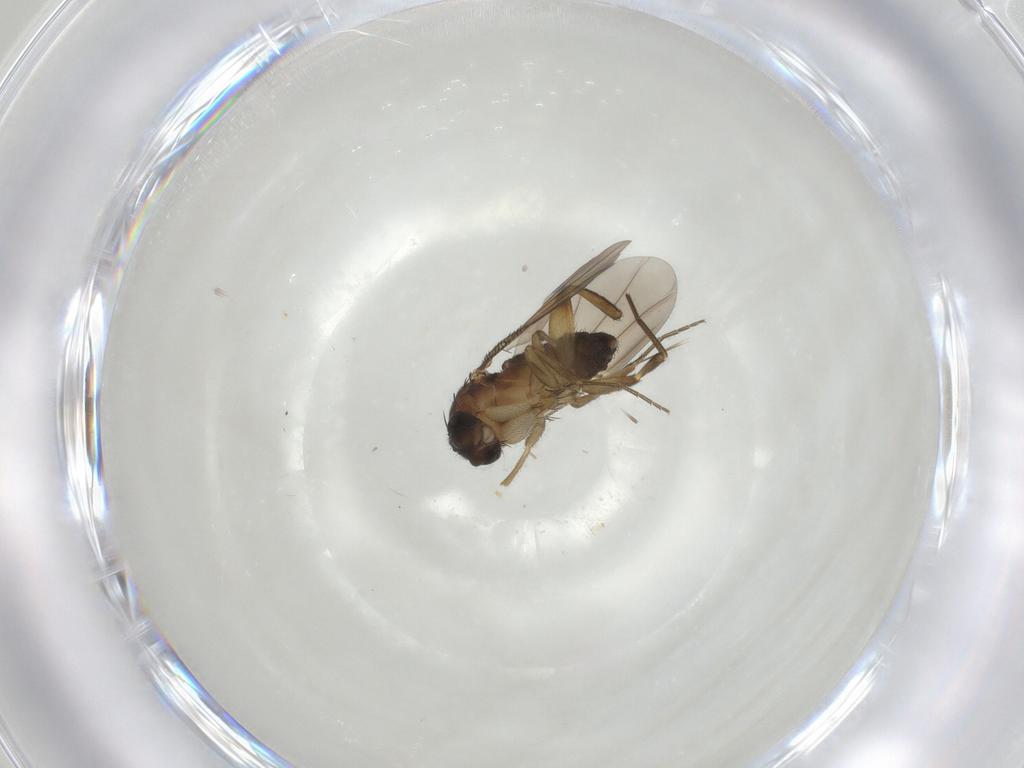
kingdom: Animalia
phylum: Arthropoda
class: Insecta
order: Diptera
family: Phoridae
